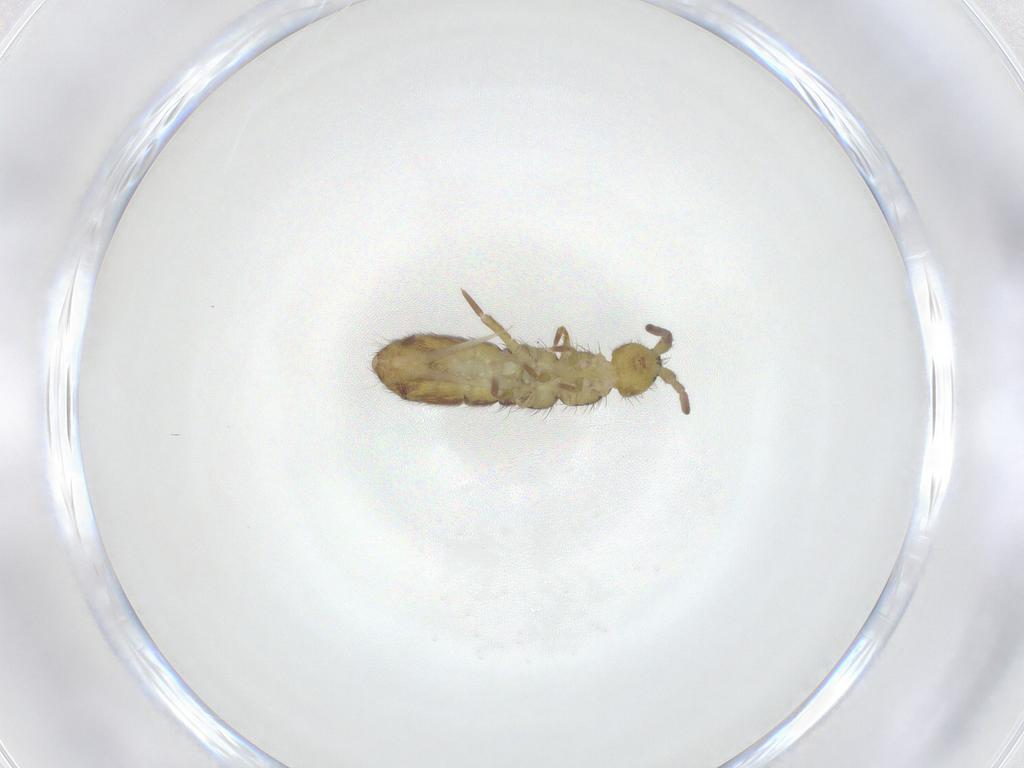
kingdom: Animalia
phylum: Arthropoda
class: Collembola
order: Entomobryomorpha
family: Isotomidae
